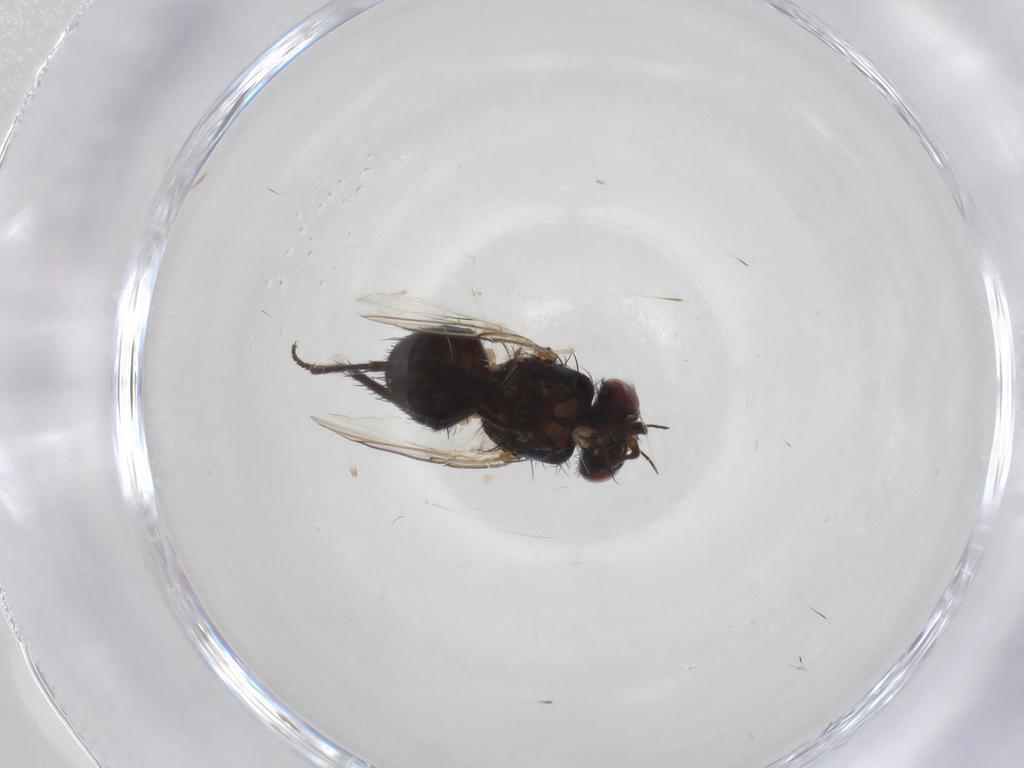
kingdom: Animalia
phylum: Arthropoda
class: Insecta
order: Diptera
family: Tachinidae
